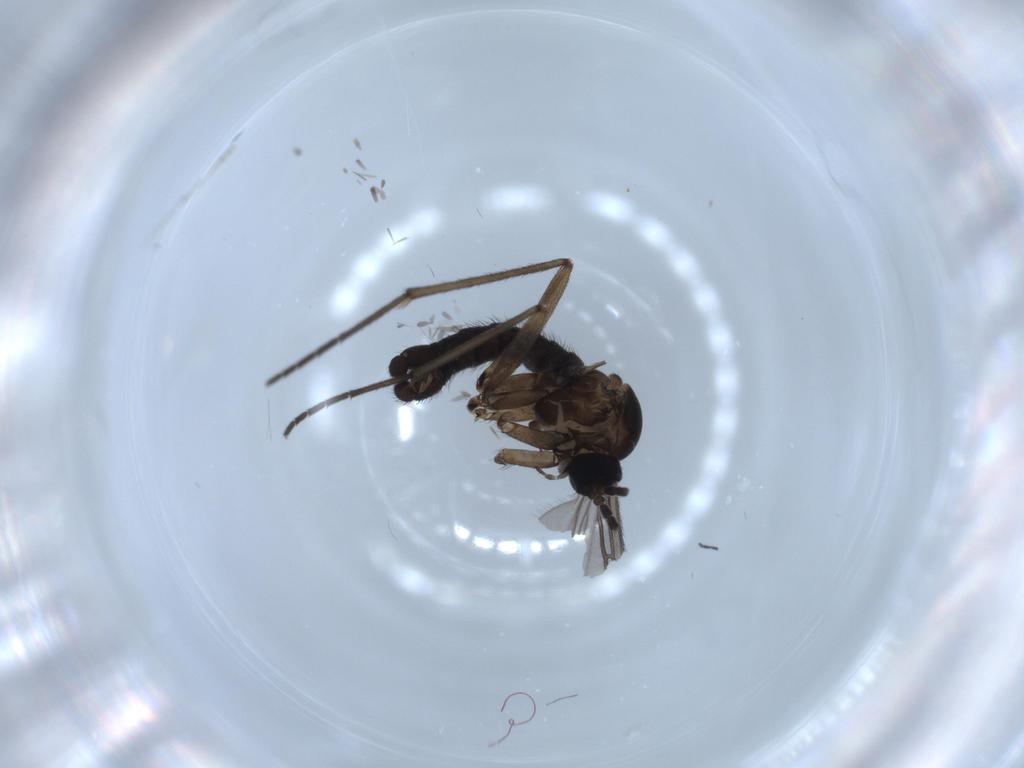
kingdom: Animalia
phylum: Arthropoda
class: Insecta
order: Diptera
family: Sciaridae
